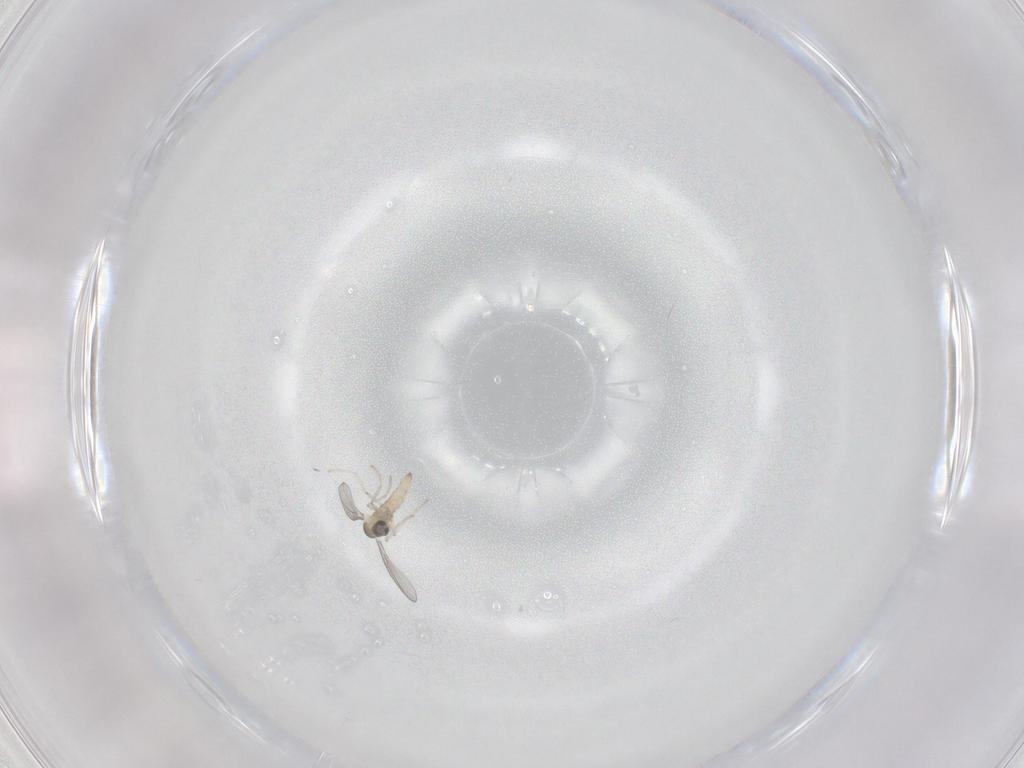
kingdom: Animalia
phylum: Arthropoda
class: Insecta
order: Diptera
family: Cecidomyiidae
